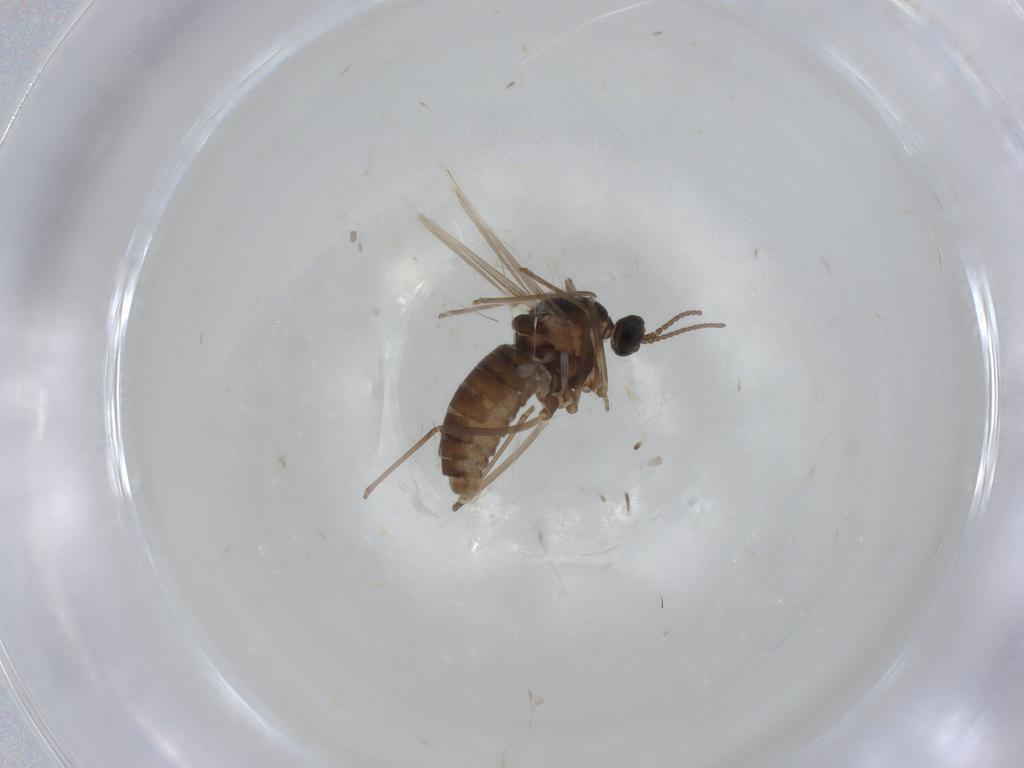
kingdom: Animalia
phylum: Arthropoda
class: Insecta
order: Diptera
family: Cecidomyiidae
